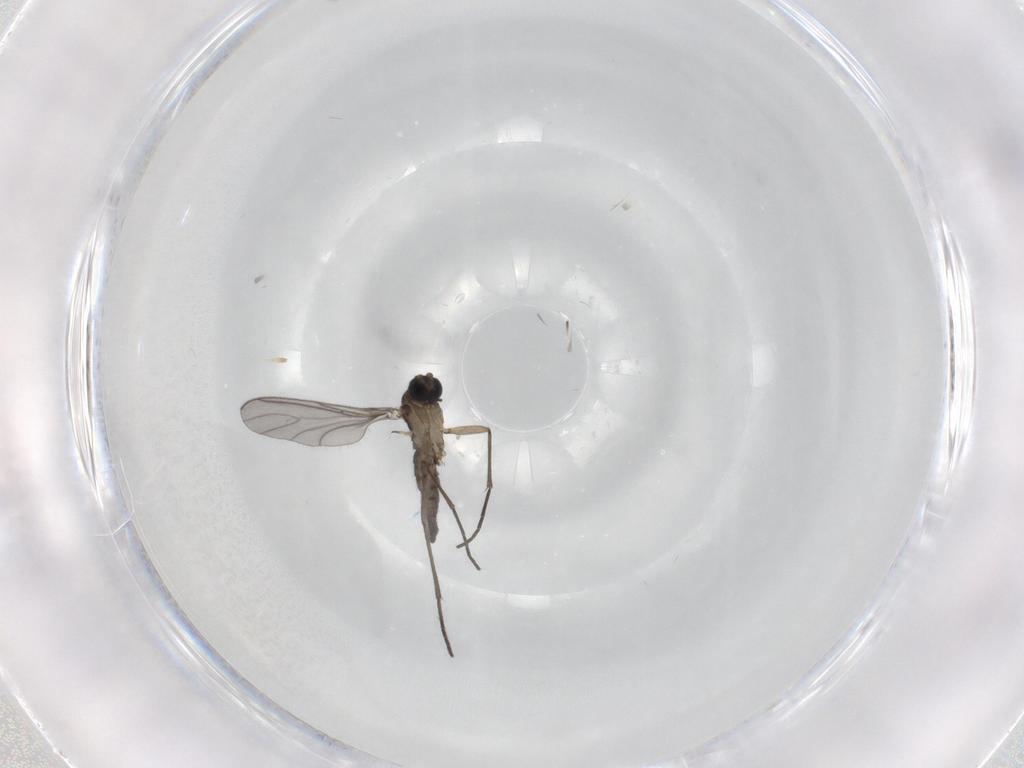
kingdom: Animalia
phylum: Arthropoda
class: Insecta
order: Diptera
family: Sciaridae
